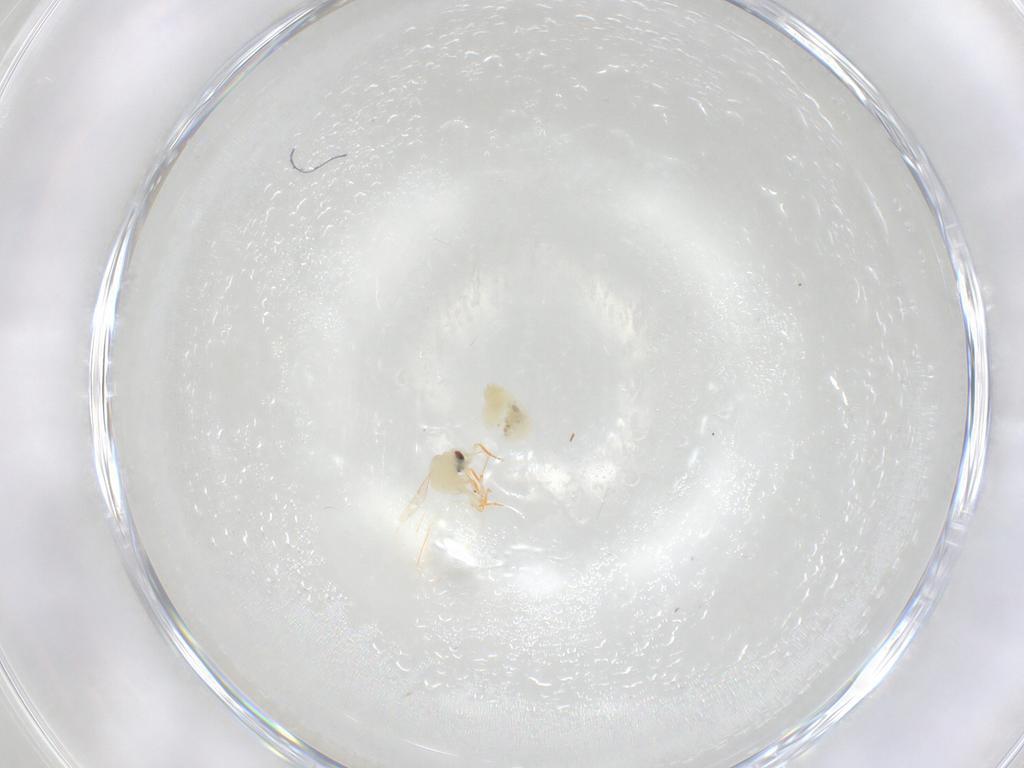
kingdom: Animalia
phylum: Arthropoda
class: Insecta
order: Hemiptera
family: Aleyrodidae
